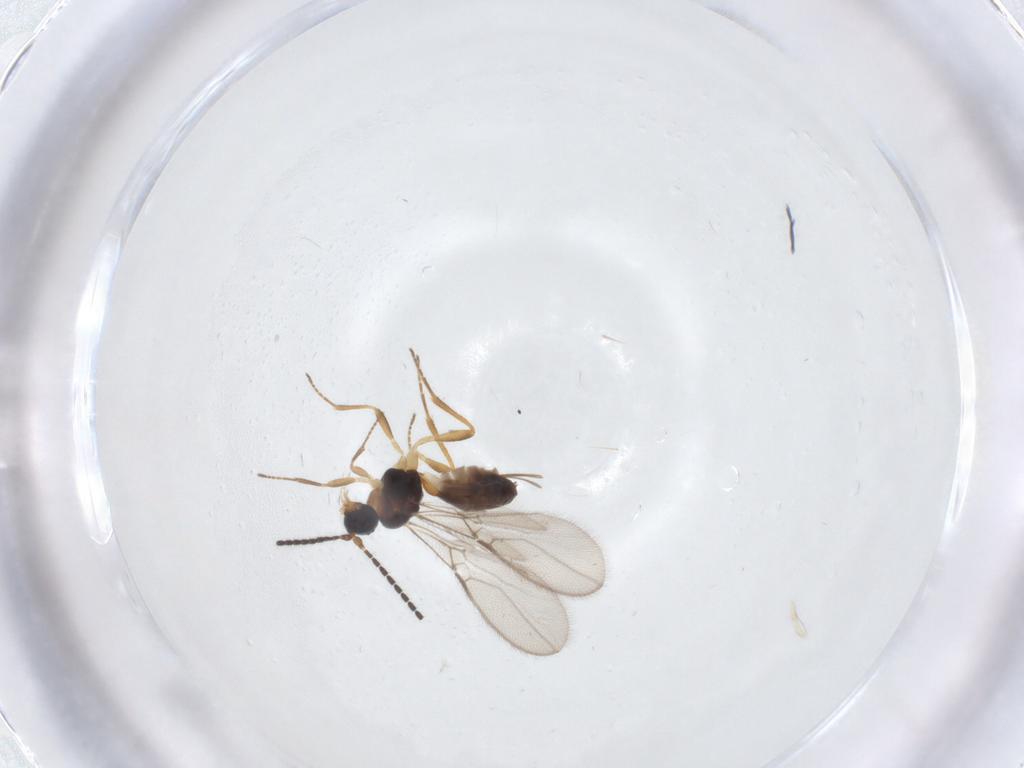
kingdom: Animalia
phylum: Arthropoda
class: Insecta
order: Hymenoptera
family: Braconidae
